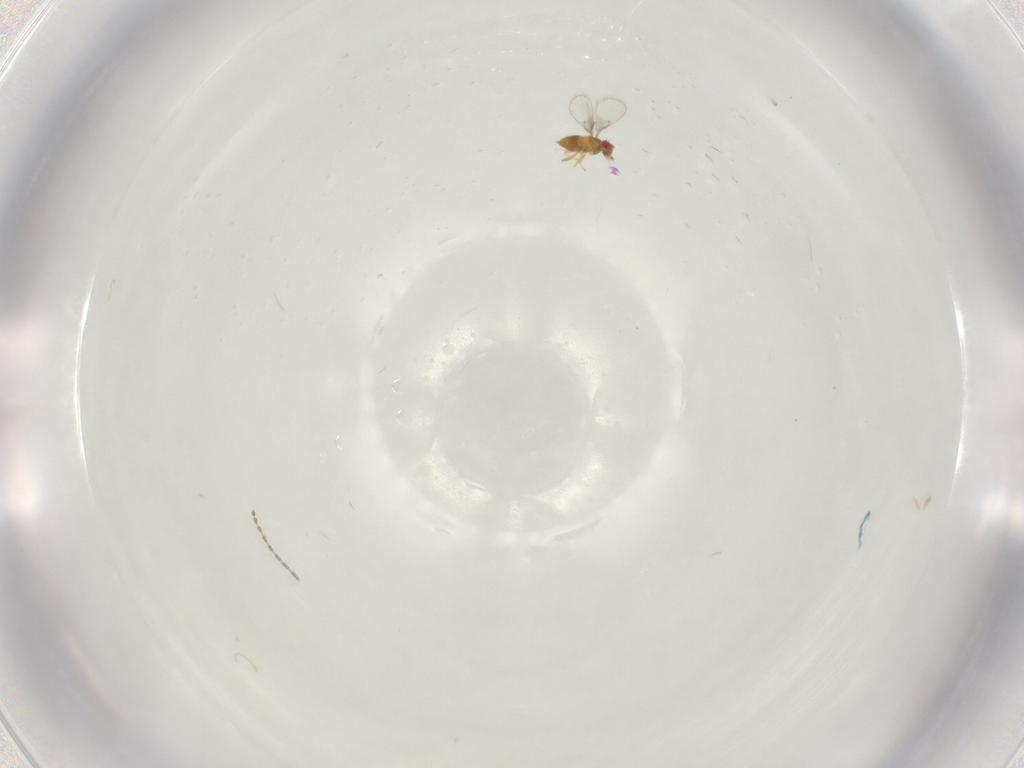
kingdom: Animalia
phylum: Arthropoda
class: Insecta
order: Hymenoptera
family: Trichogrammatidae
